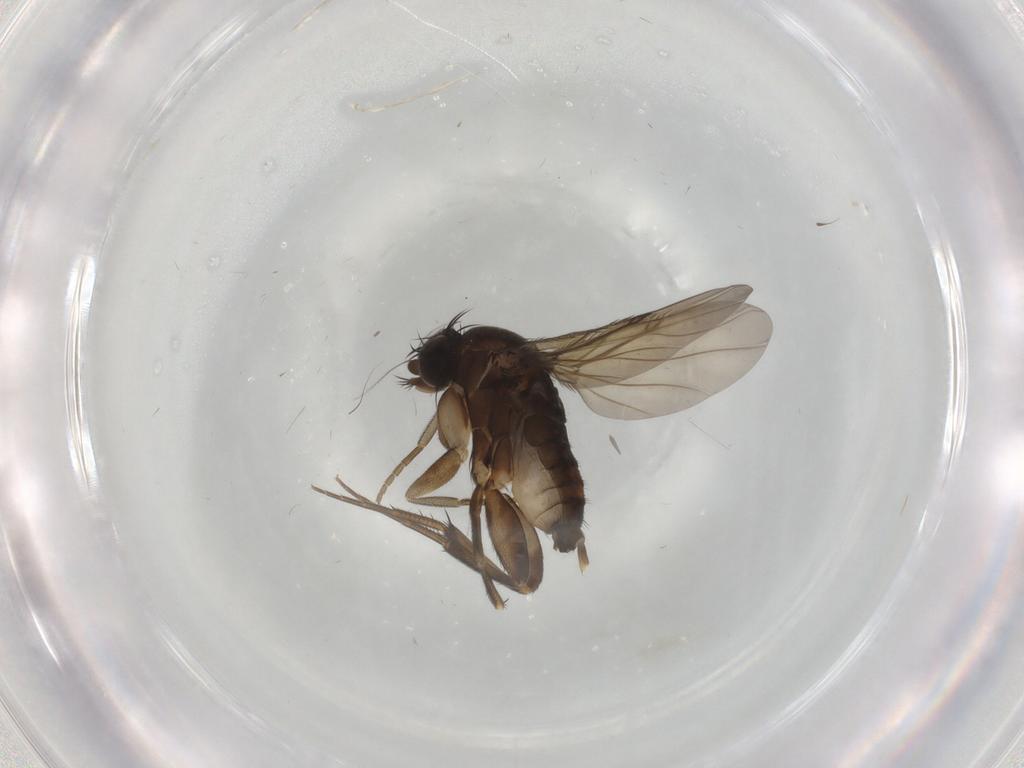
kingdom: Animalia
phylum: Arthropoda
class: Insecta
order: Diptera
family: Phoridae
